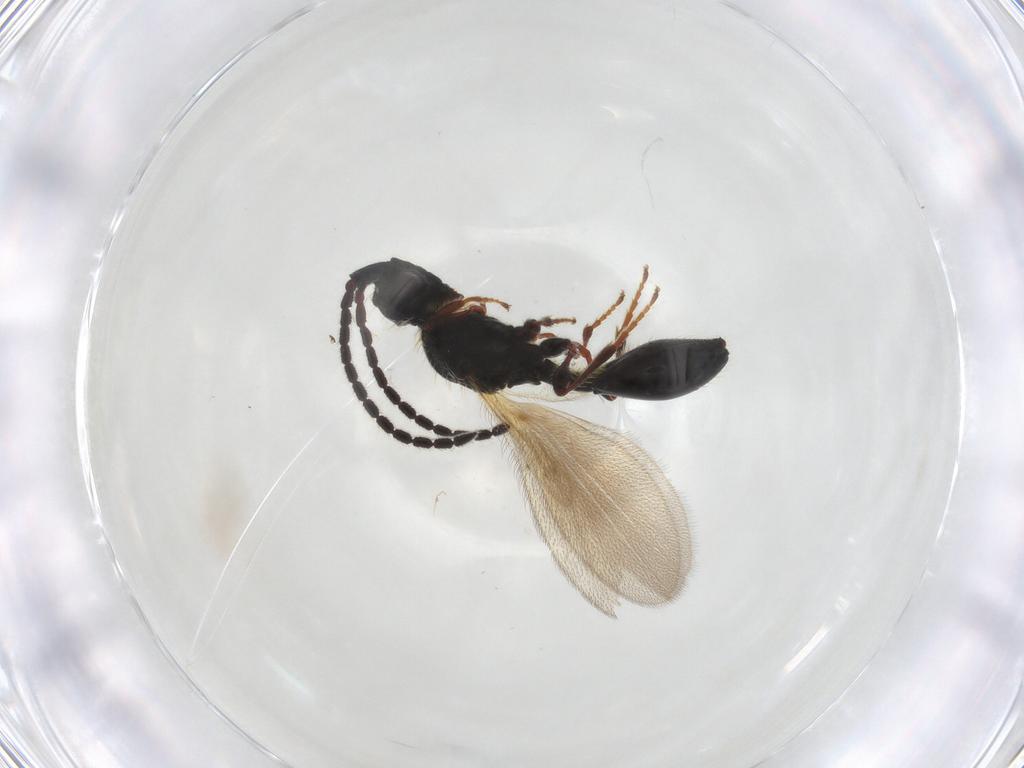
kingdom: Animalia
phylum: Arthropoda
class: Insecta
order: Hymenoptera
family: Diapriidae
